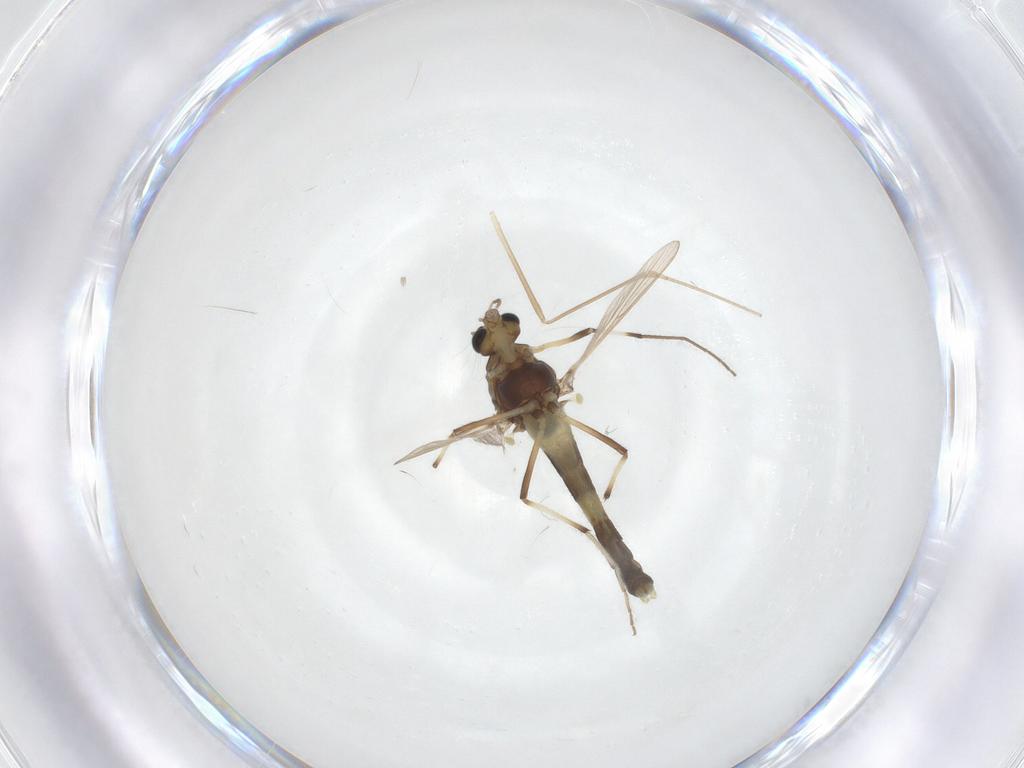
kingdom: Animalia
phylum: Arthropoda
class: Insecta
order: Diptera
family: Chironomidae
